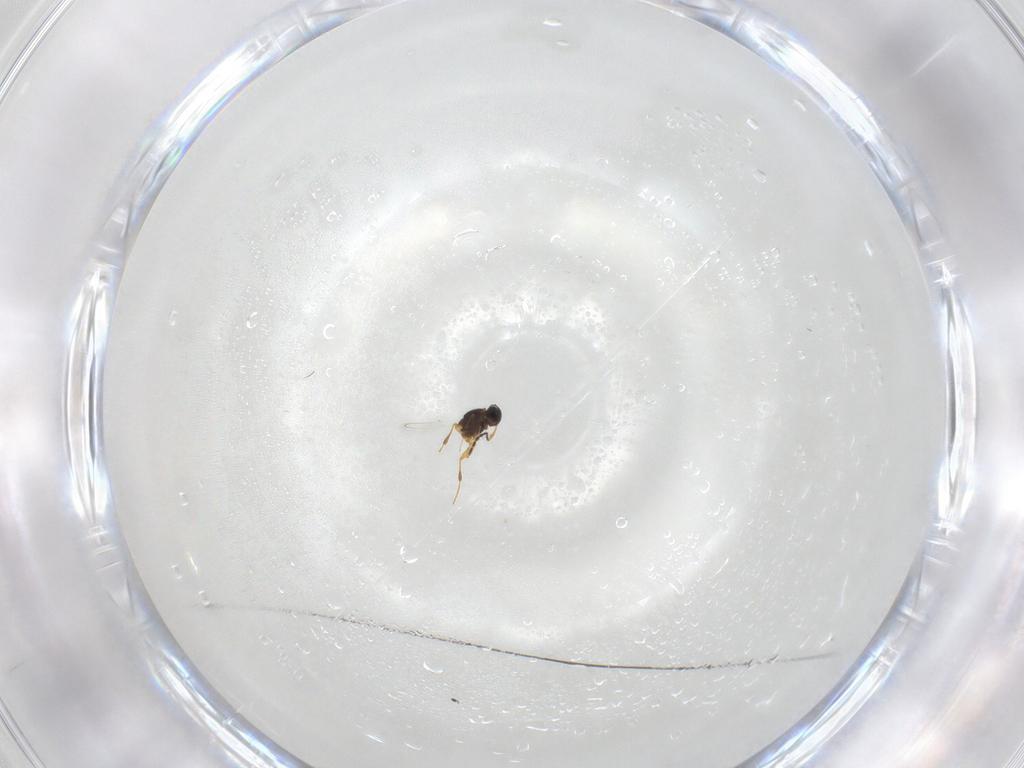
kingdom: Animalia
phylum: Arthropoda
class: Insecta
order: Hymenoptera
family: Platygastridae
